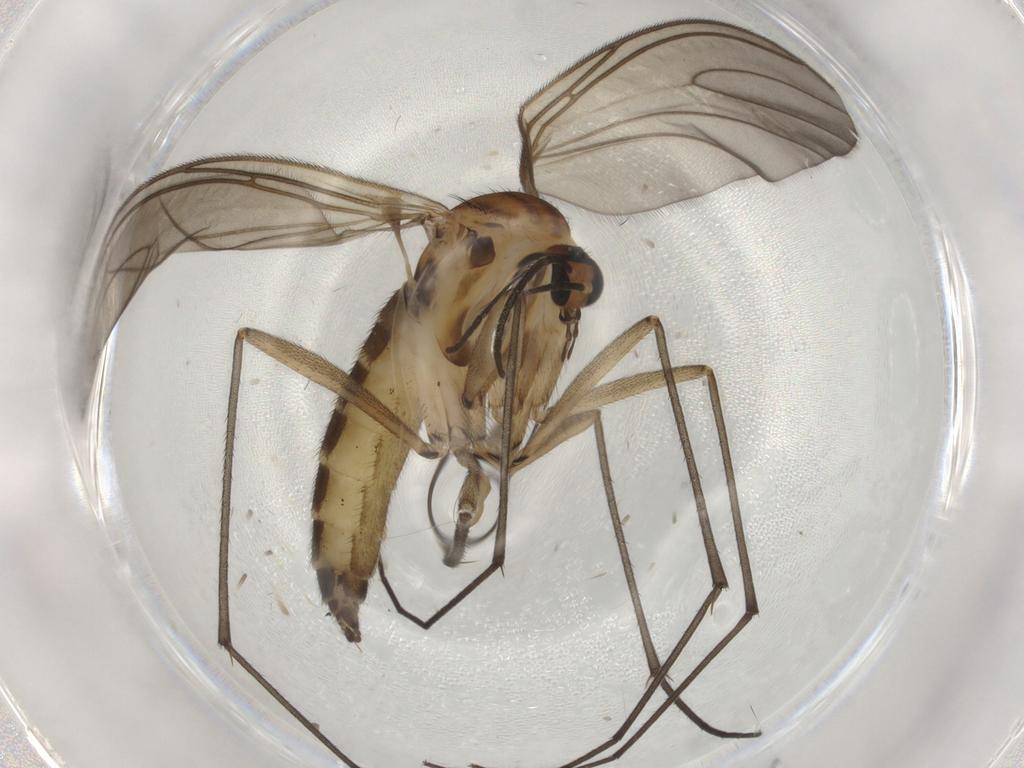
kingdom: Animalia
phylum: Arthropoda
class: Insecta
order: Diptera
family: Sciaridae
